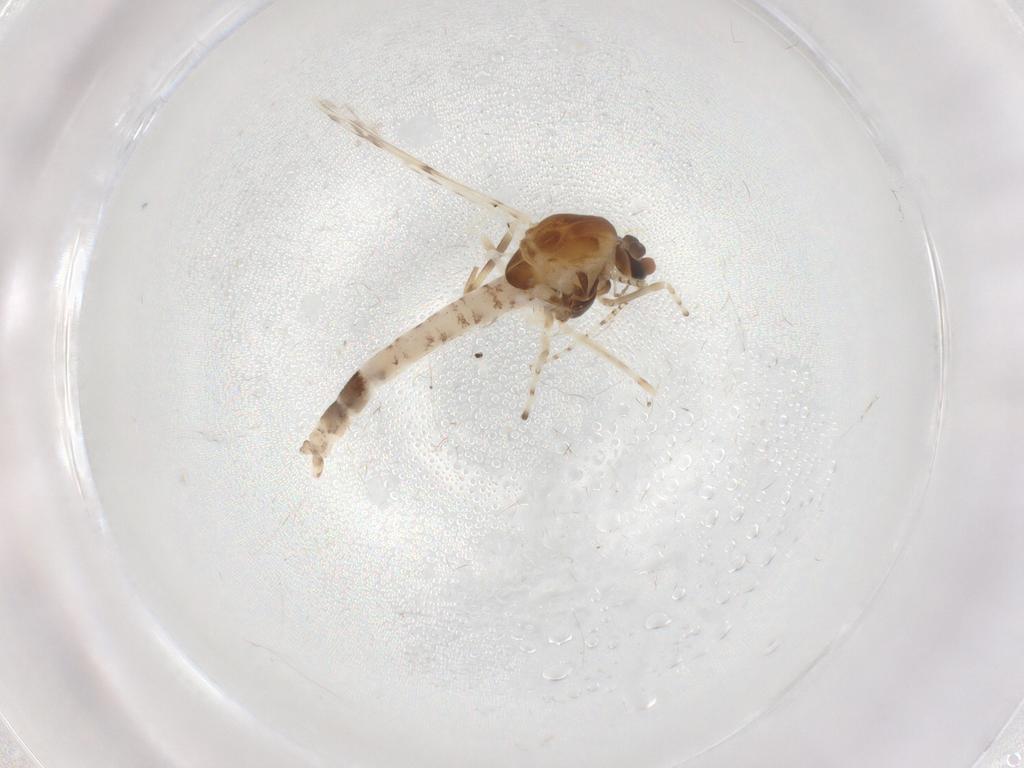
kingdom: Animalia
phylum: Arthropoda
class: Insecta
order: Diptera
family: Chironomidae
